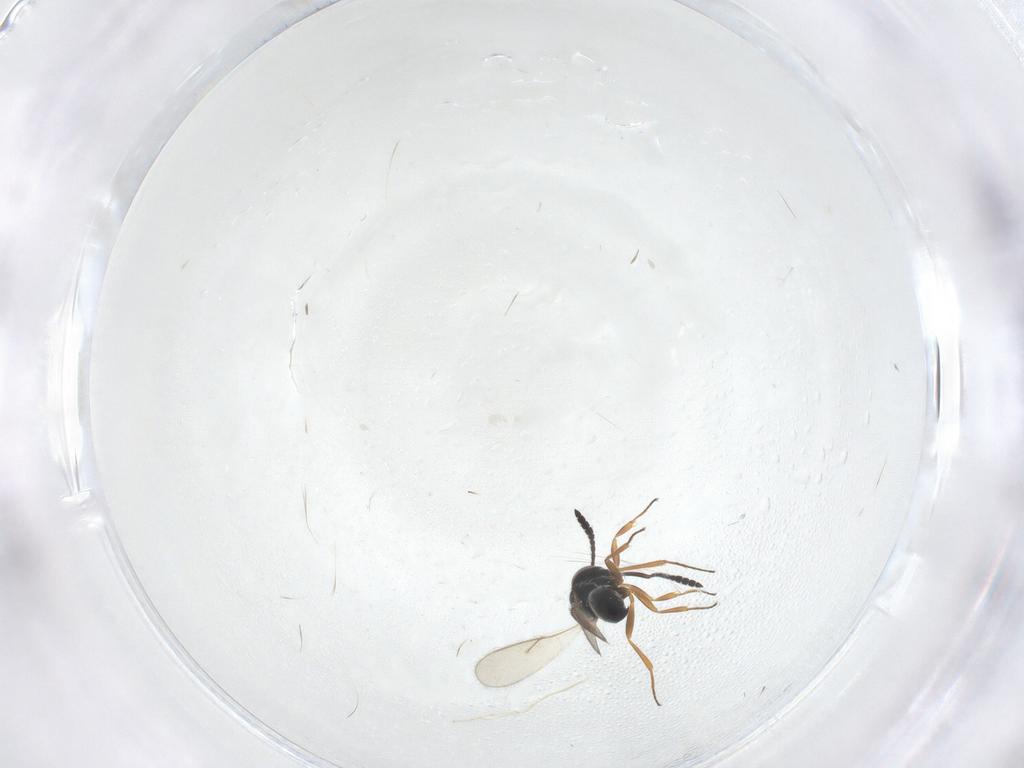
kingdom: Animalia
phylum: Arthropoda
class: Insecta
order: Hymenoptera
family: Scelionidae
